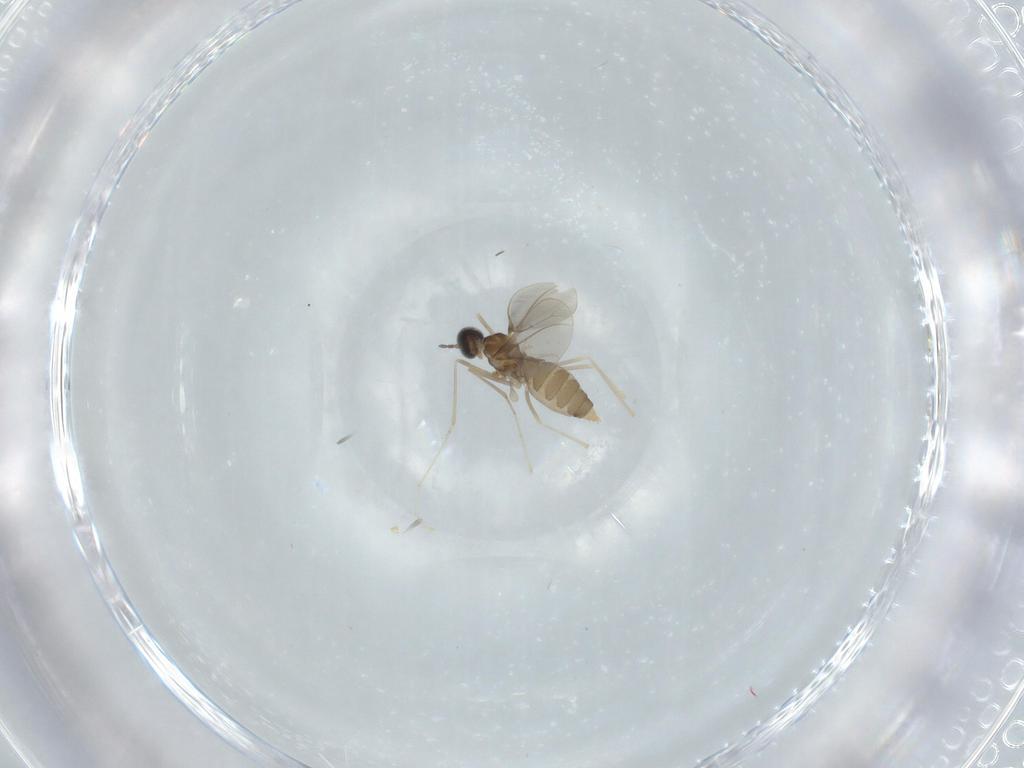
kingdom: Animalia
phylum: Arthropoda
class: Insecta
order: Diptera
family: Cecidomyiidae
